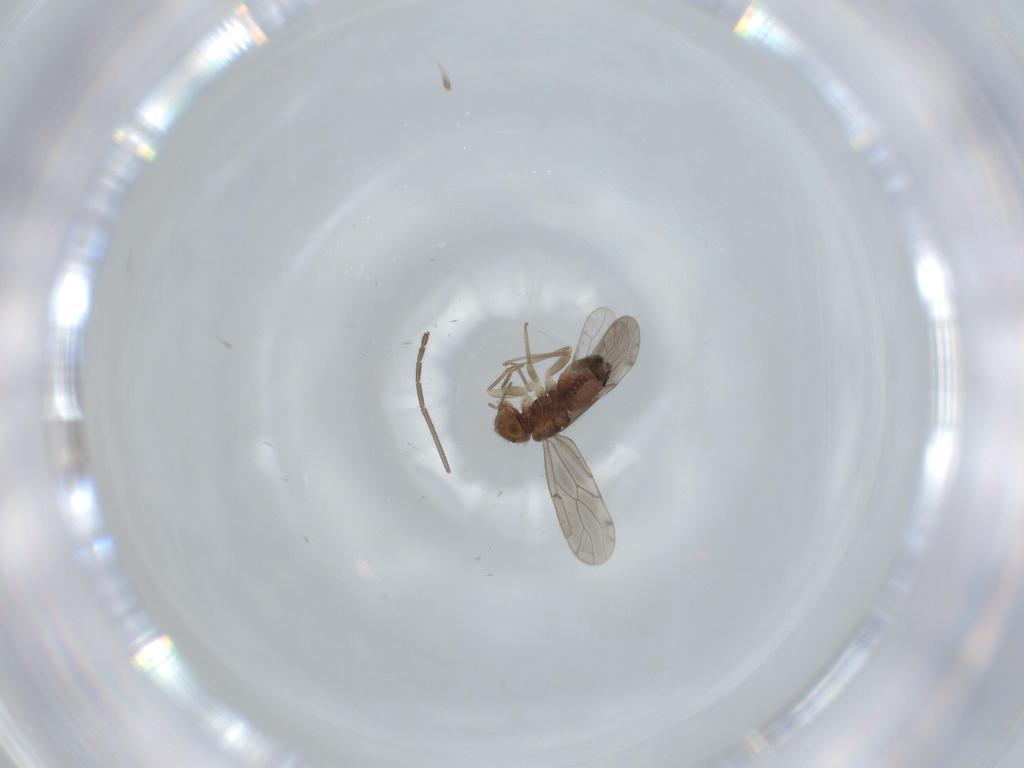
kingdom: Animalia
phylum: Arthropoda
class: Insecta
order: Psocodea
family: Ectopsocidae
